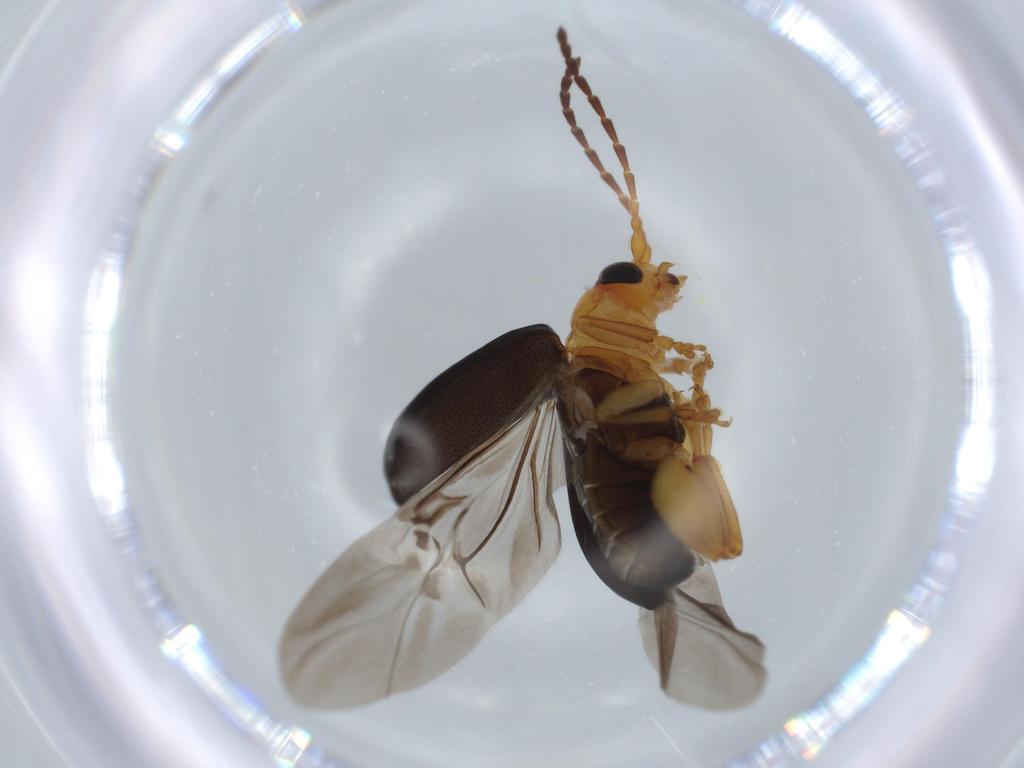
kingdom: Animalia
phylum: Arthropoda
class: Insecta
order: Coleoptera
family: Chrysomelidae
